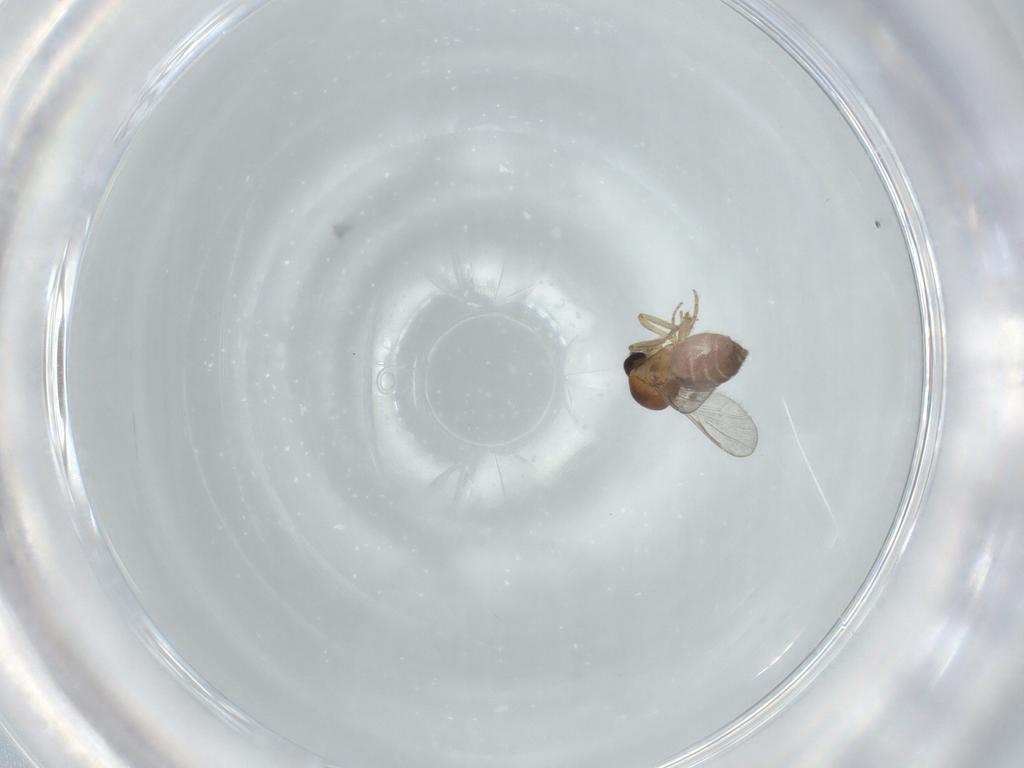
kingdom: Animalia
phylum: Arthropoda
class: Insecta
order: Diptera
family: Ceratopogonidae
